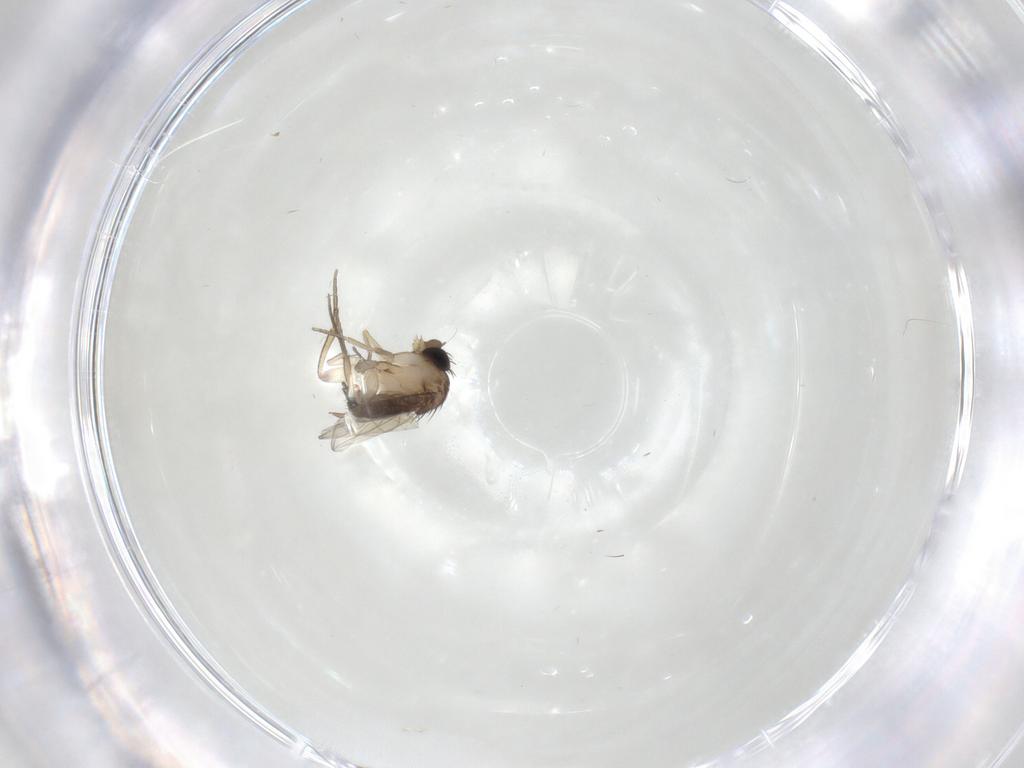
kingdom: Animalia
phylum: Arthropoda
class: Insecta
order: Diptera
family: Chironomidae
